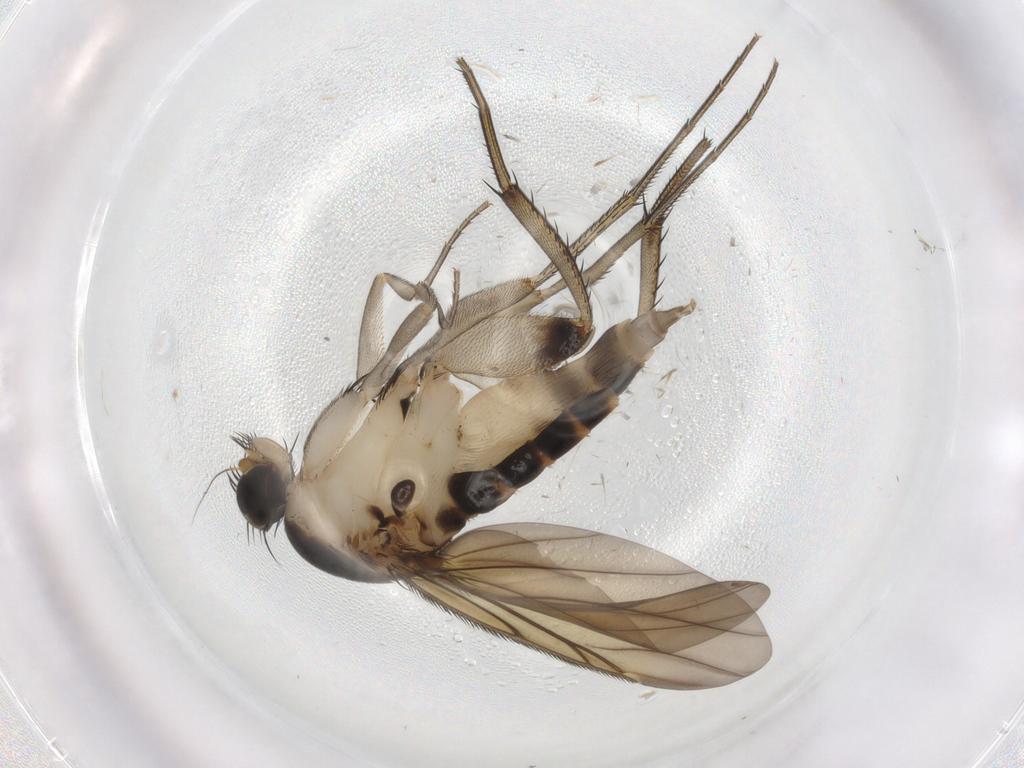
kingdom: Animalia
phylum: Arthropoda
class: Insecta
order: Diptera
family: Phoridae
